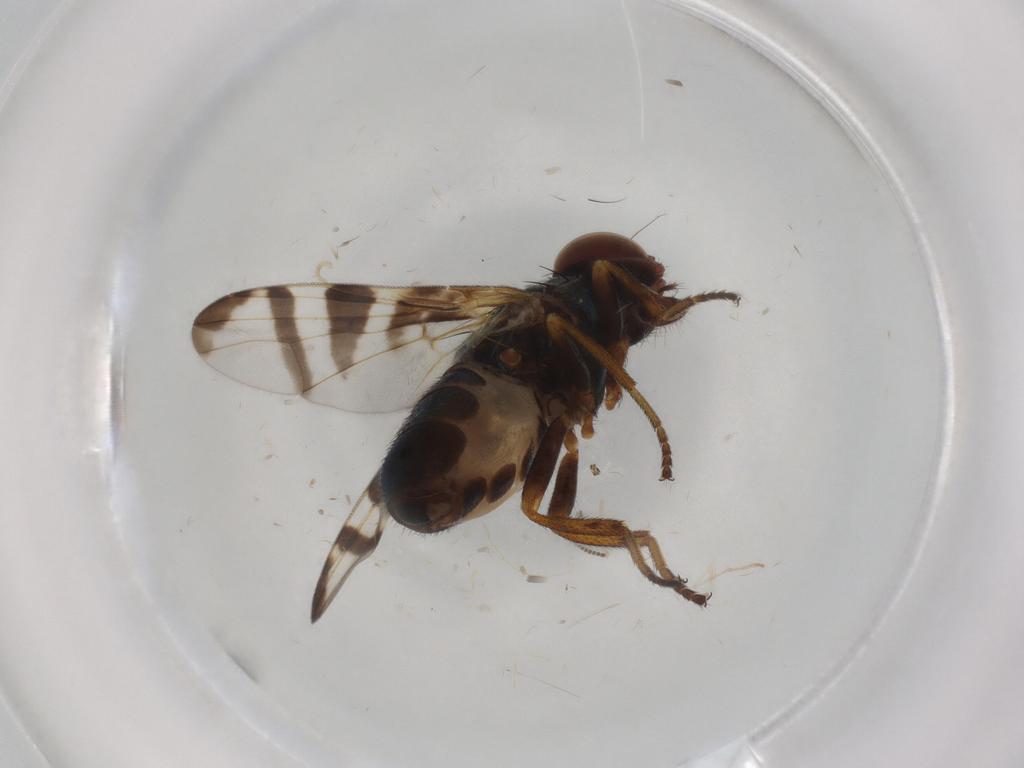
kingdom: Animalia
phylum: Arthropoda
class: Insecta
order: Diptera
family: Platystomatidae
